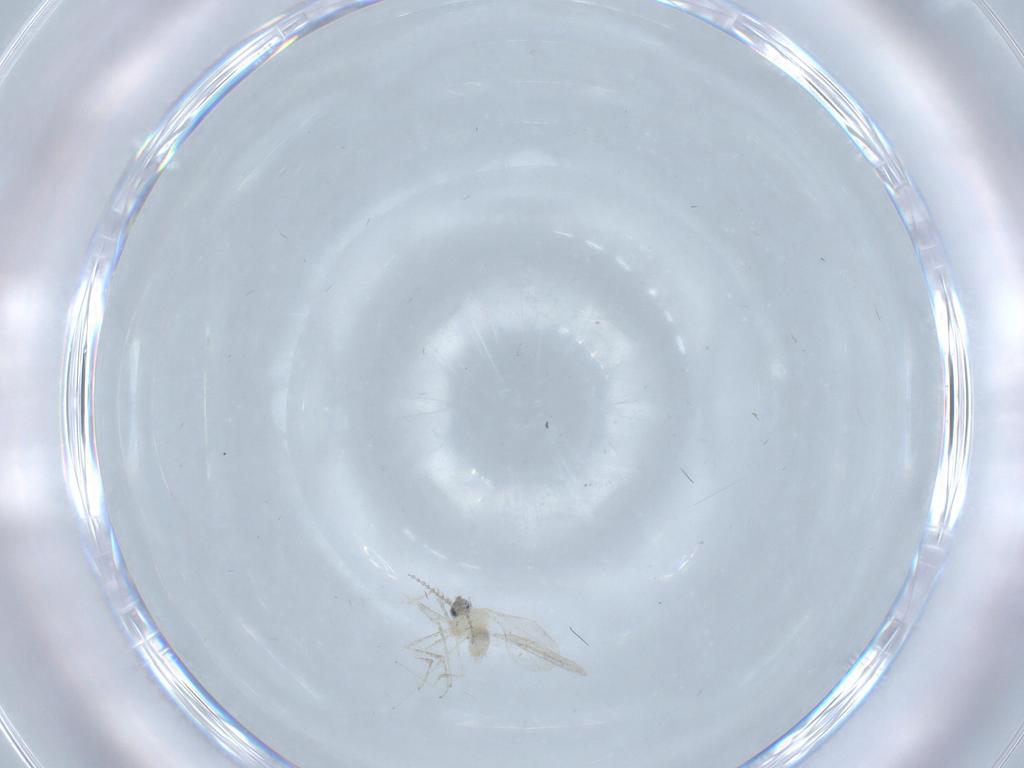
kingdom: Animalia
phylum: Arthropoda
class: Insecta
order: Diptera
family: Cecidomyiidae
